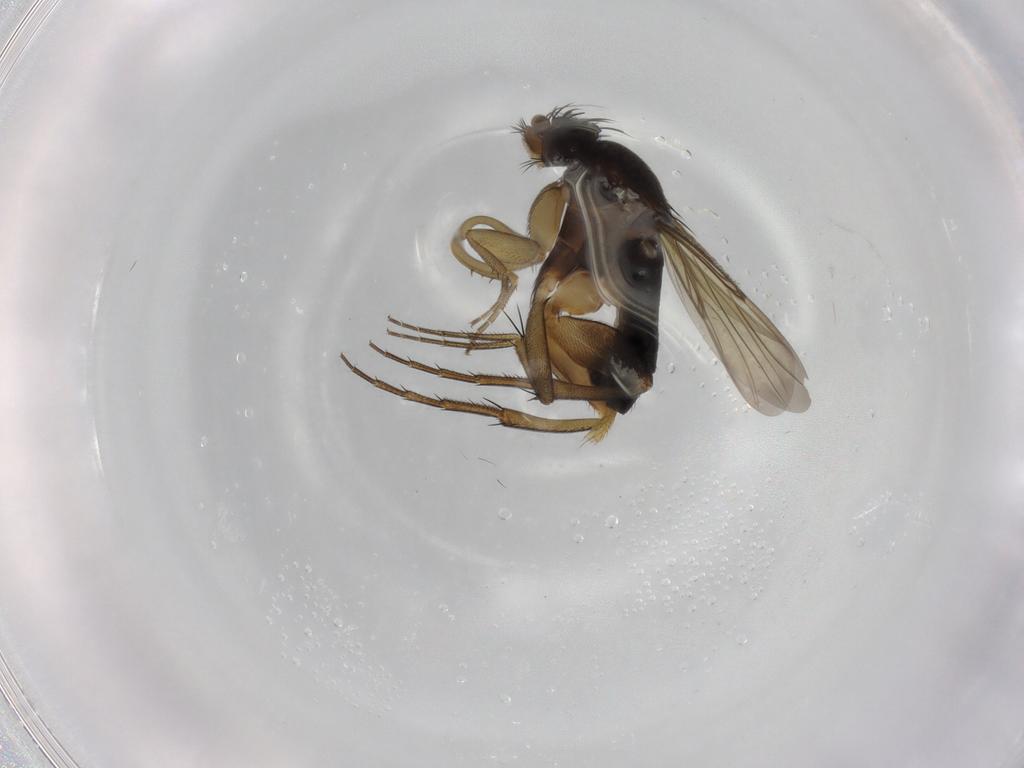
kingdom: Animalia
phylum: Arthropoda
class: Insecta
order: Diptera
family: Phoridae
